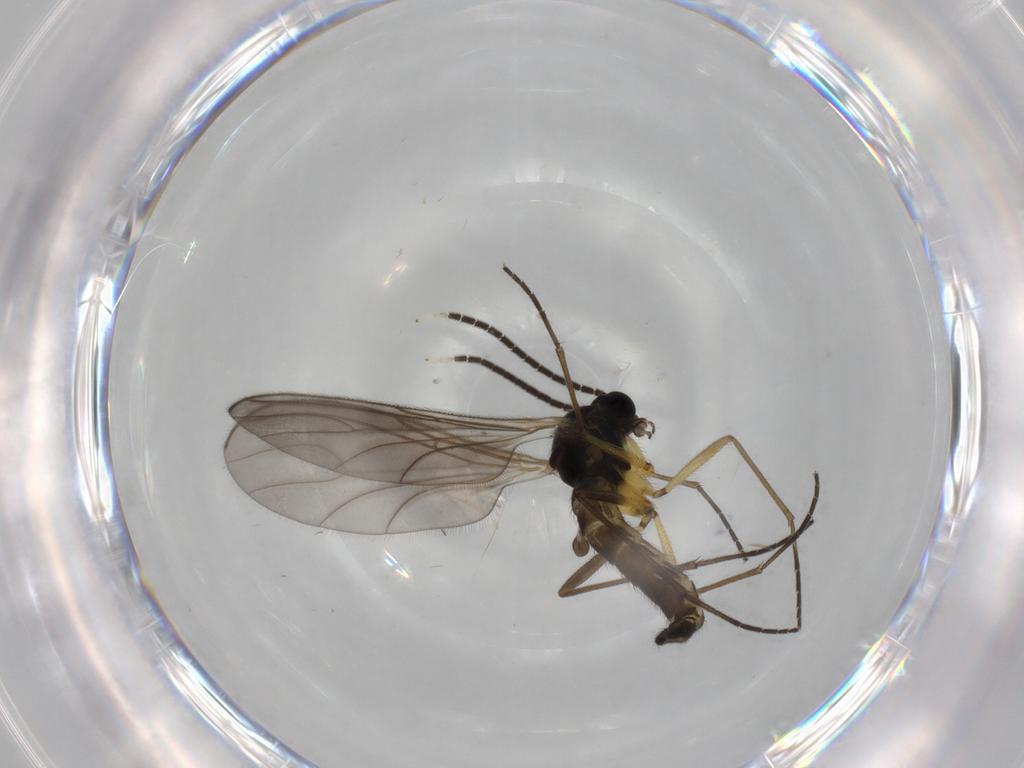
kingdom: Animalia
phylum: Arthropoda
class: Insecta
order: Diptera
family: Sciaridae
